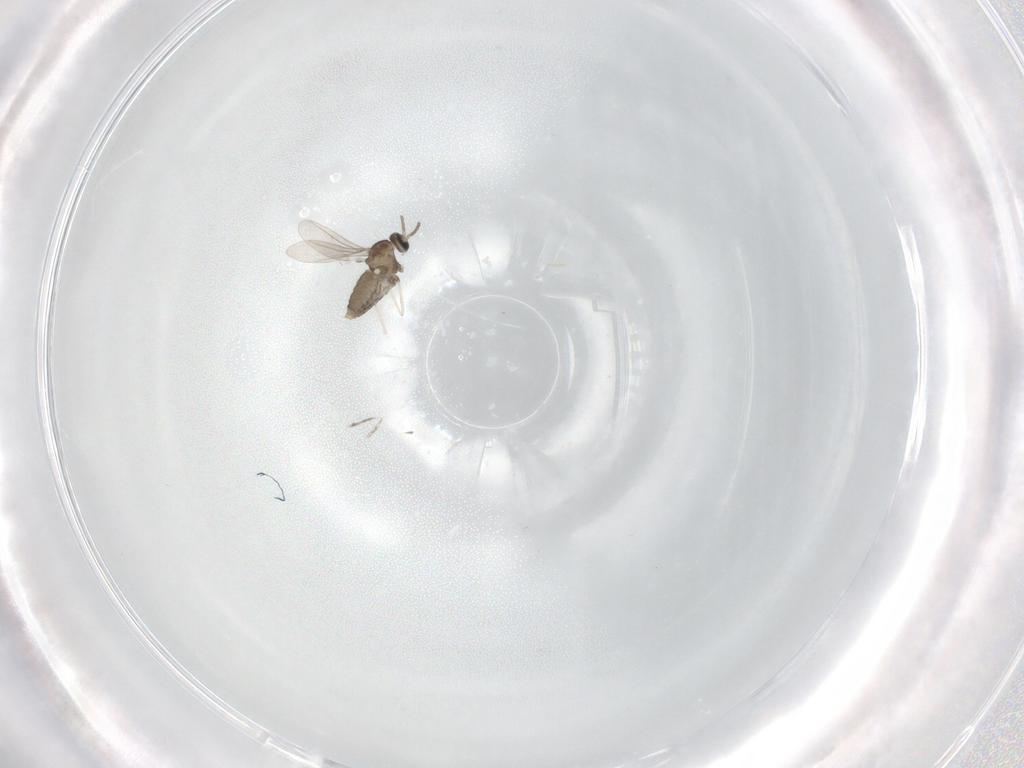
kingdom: Animalia
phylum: Arthropoda
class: Insecta
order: Diptera
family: Cecidomyiidae
